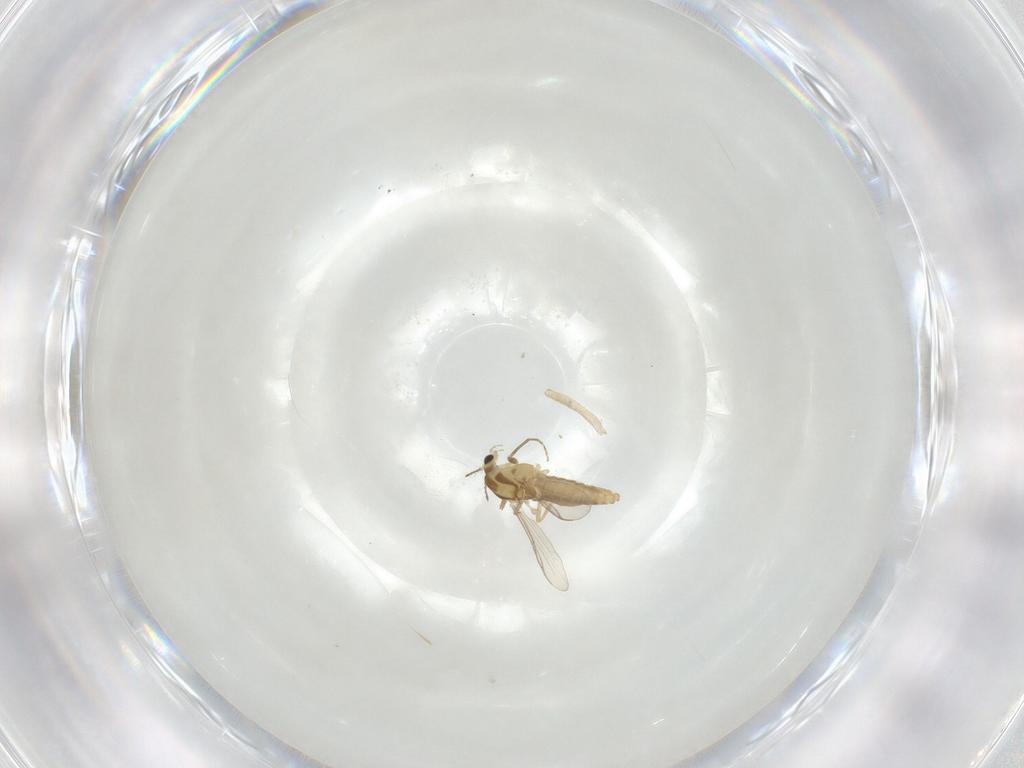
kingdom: Animalia
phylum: Arthropoda
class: Insecta
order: Diptera
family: Chironomidae
